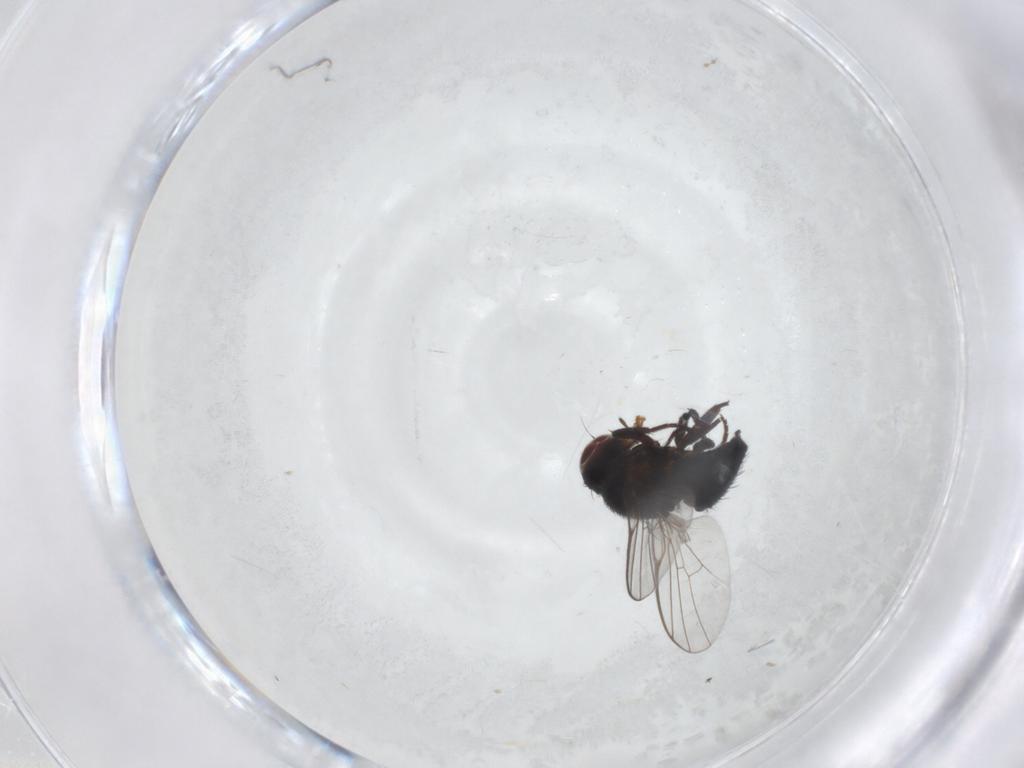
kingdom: Animalia
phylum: Arthropoda
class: Insecta
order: Diptera
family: Agromyzidae
